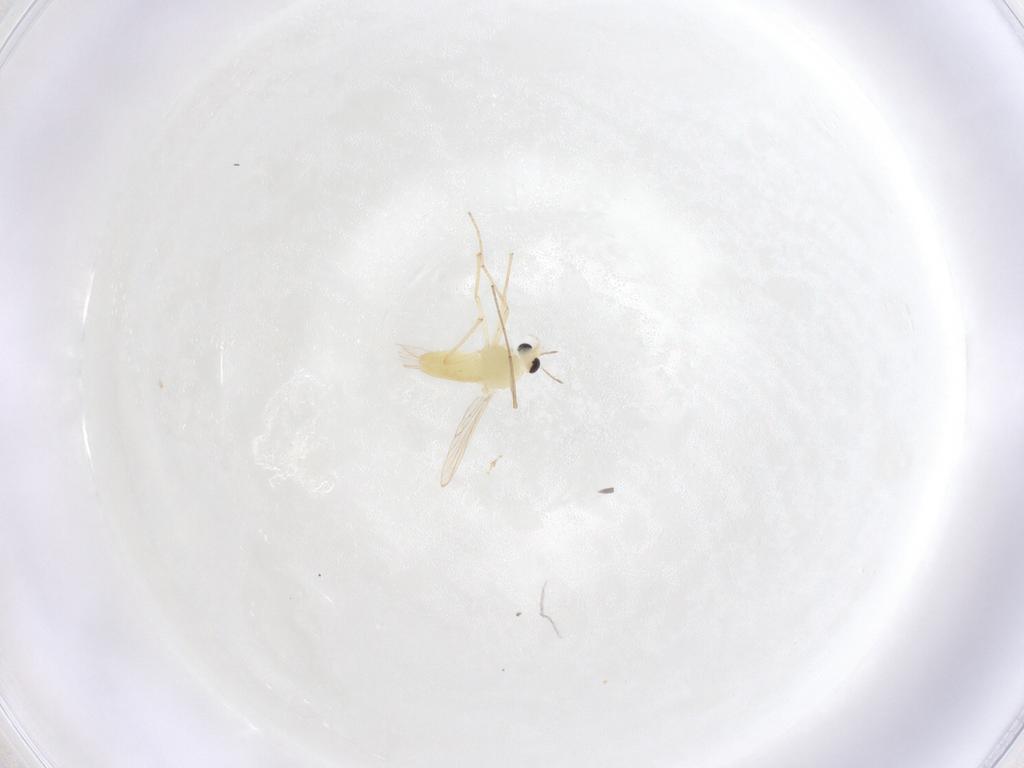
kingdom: Animalia
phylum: Arthropoda
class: Insecta
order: Diptera
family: Chironomidae
